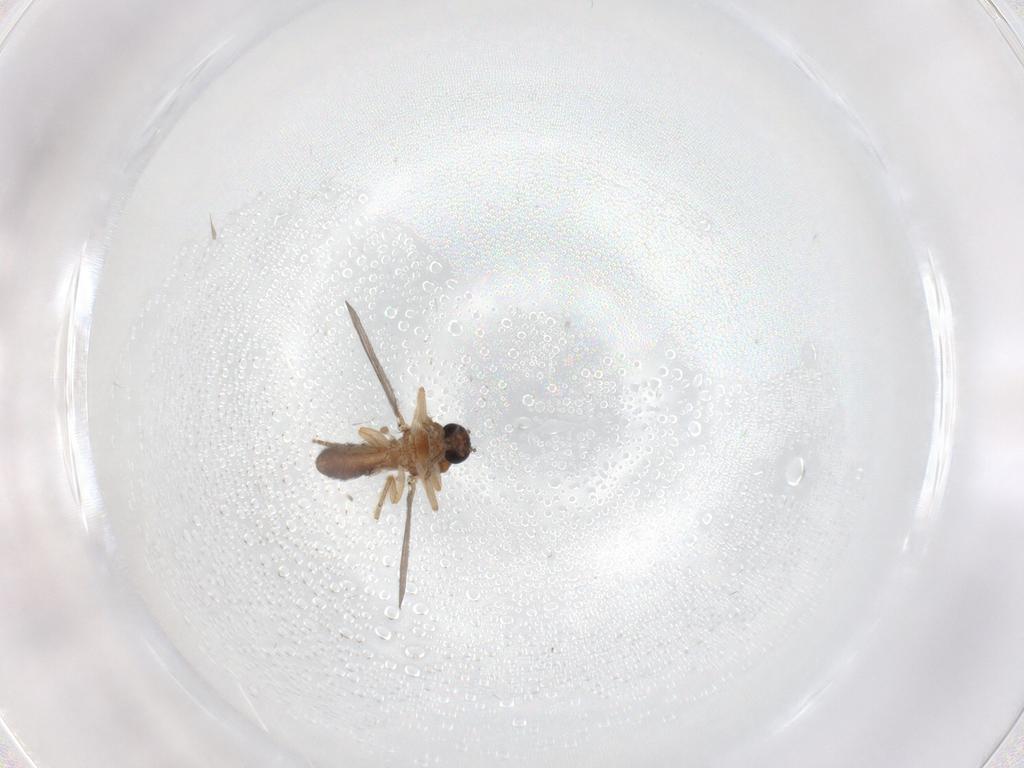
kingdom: Animalia
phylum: Arthropoda
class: Insecta
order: Diptera
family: Ceratopogonidae
